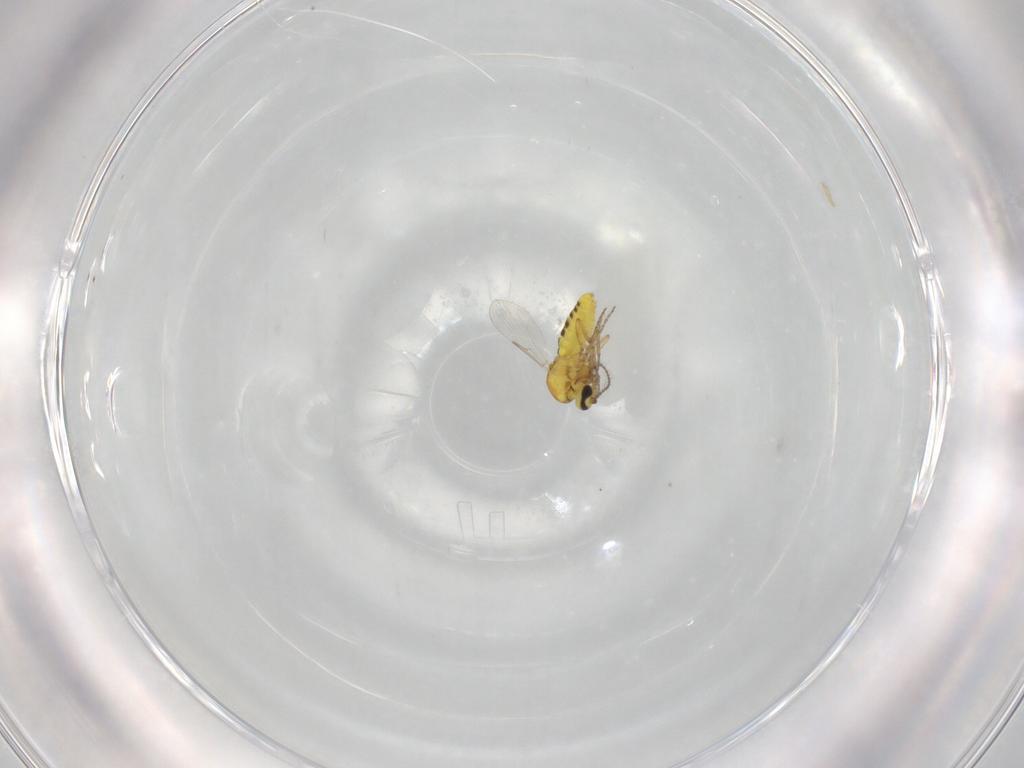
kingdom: Animalia
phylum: Arthropoda
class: Insecta
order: Diptera
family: Ceratopogonidae
